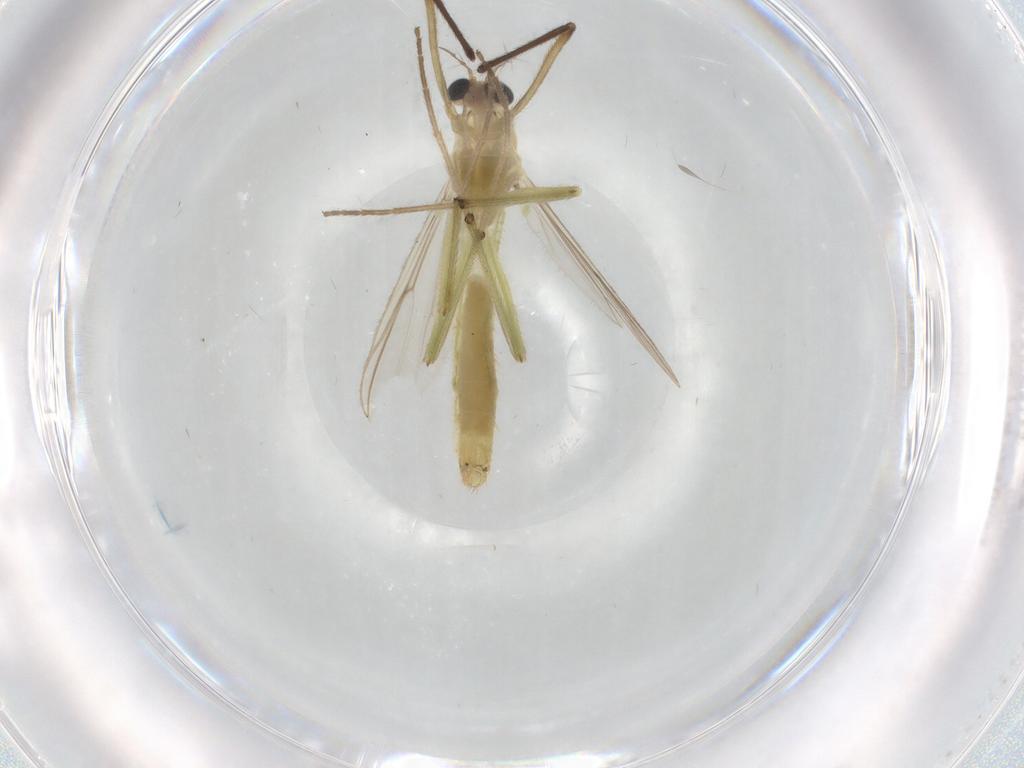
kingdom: Animalia
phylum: Arthropoda
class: Insecta
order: Diptera
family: Chironomidae
